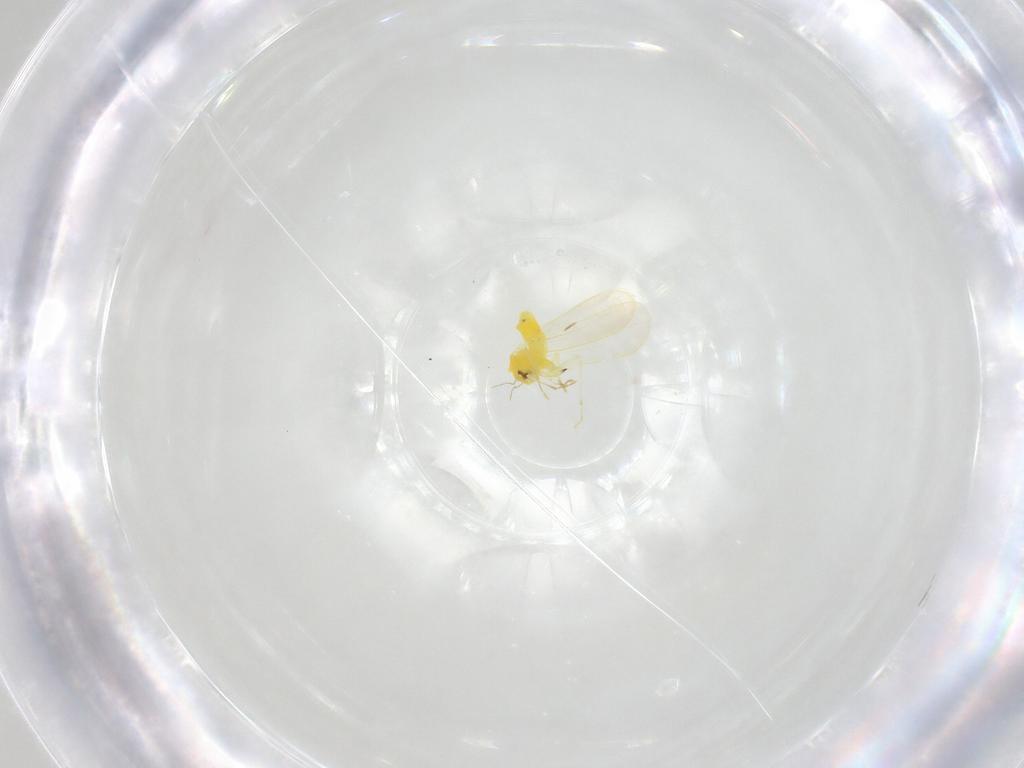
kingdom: Animalia
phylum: Arthropoda
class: Insecta
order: Hemiptera
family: Aleyrodidae
